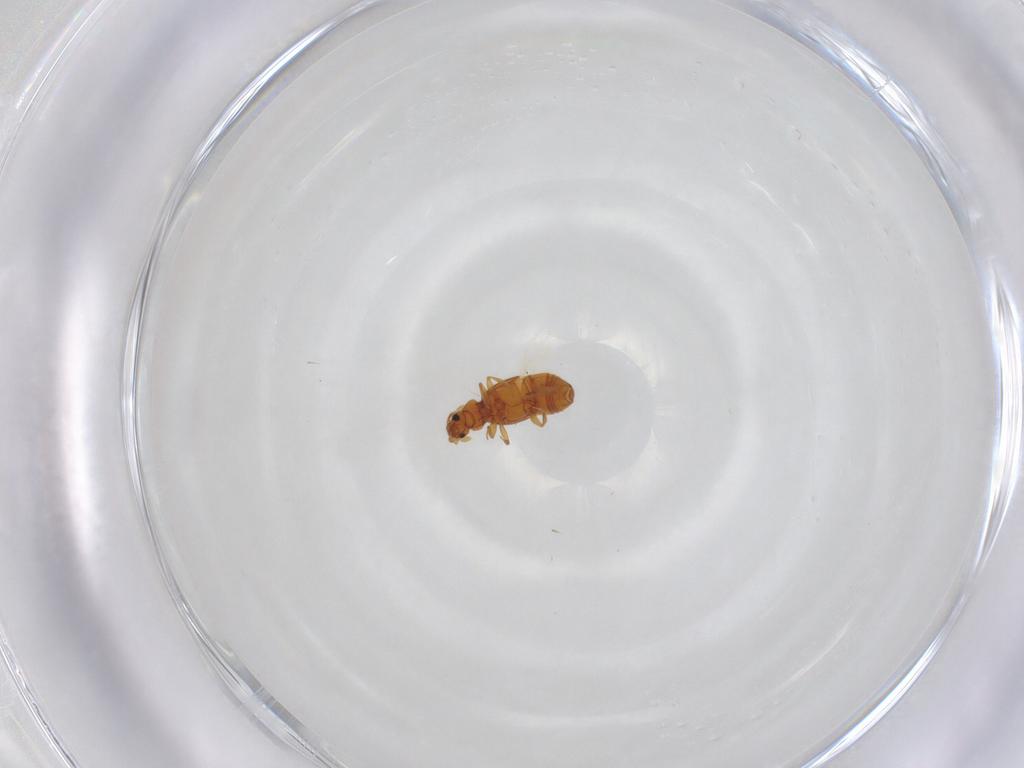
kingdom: Animalia
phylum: Arthropoda
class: Insecta
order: Coleoptera
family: Staphylinidae
